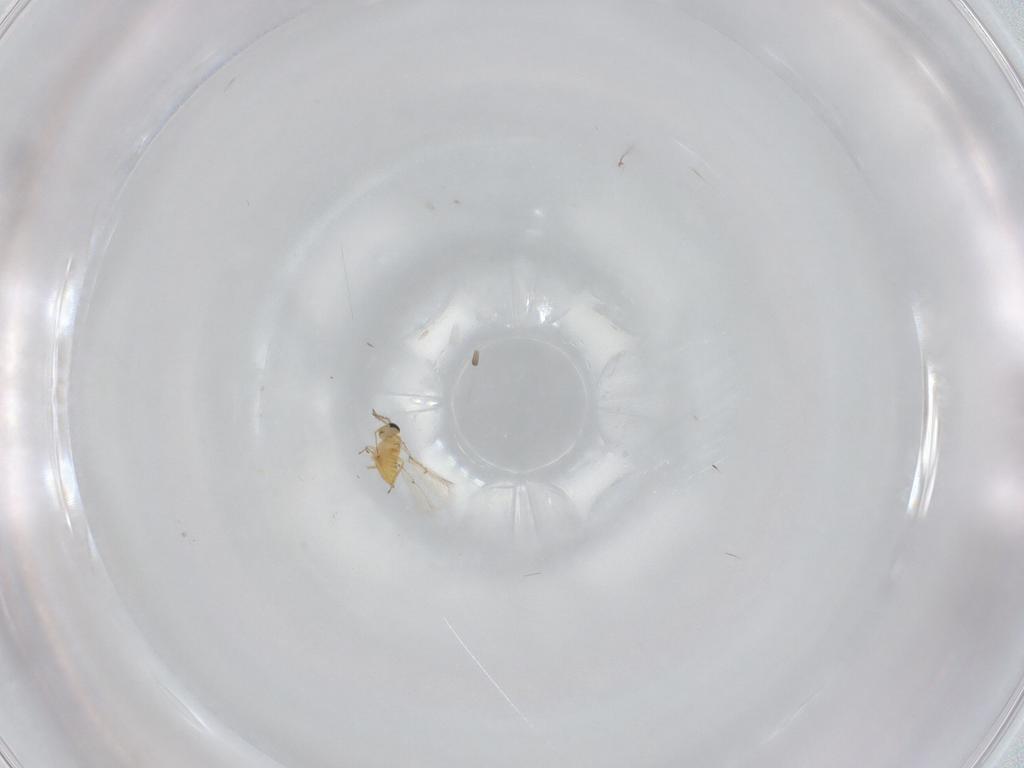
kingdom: Animalia
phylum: Arthropoda
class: Insecta
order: Hymenoptera
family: Trichogrammatidae
